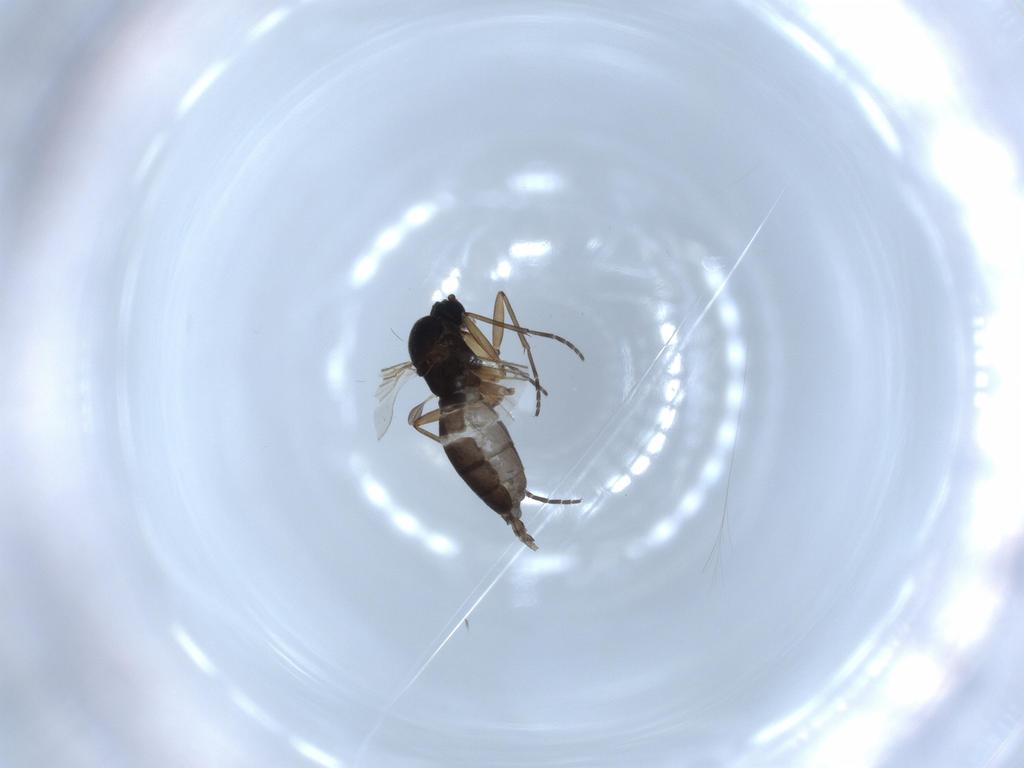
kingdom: Animalia
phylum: Arthropoda
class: Insecta
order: Diptera
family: Sciaridae
